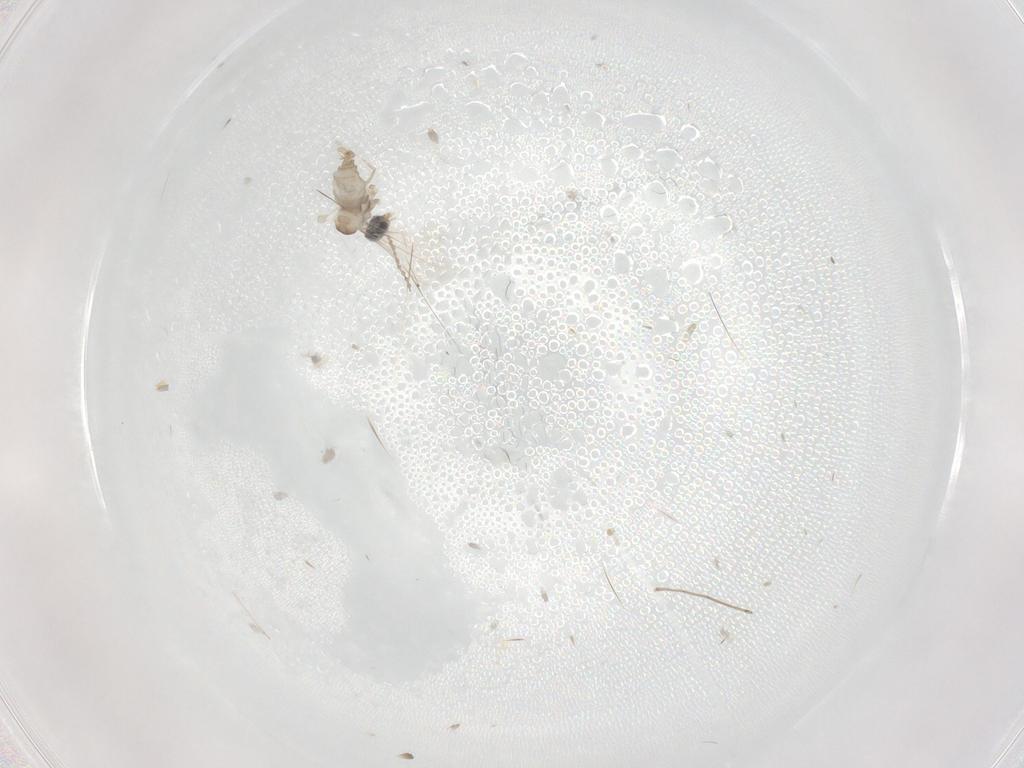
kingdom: Animalia
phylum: Arthropoda
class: Insecta
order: Diptera
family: Cecidomyiidae
